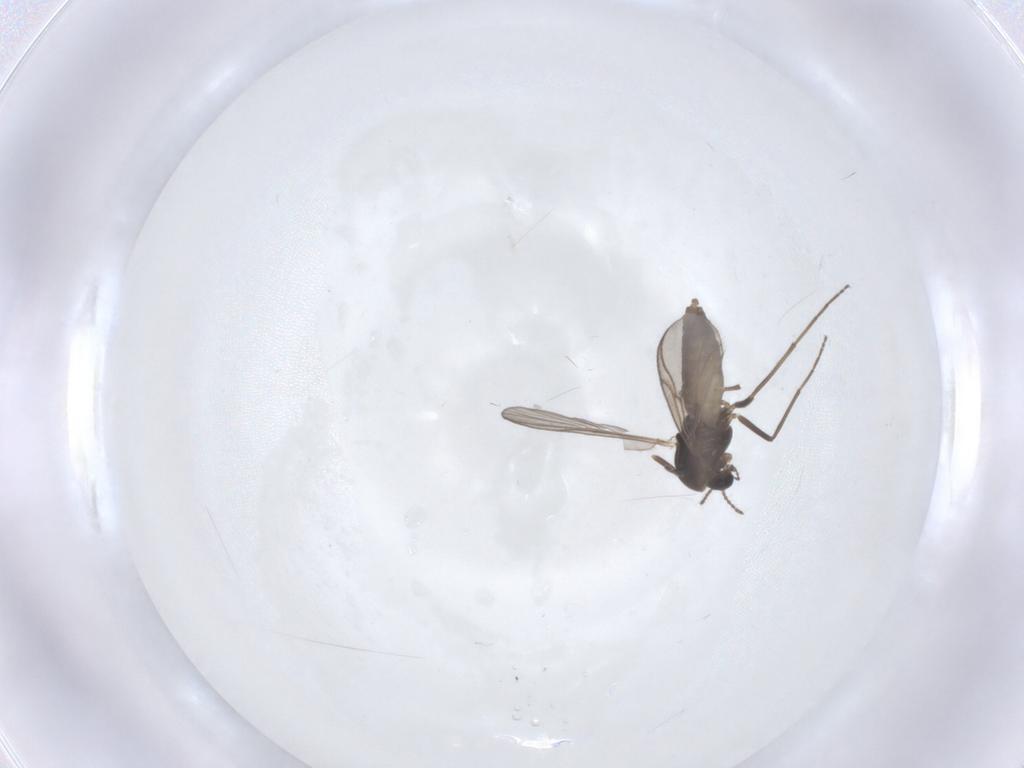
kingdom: Animalia
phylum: Arthropoda
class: Insecta
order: Diptera
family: Chironomidae
